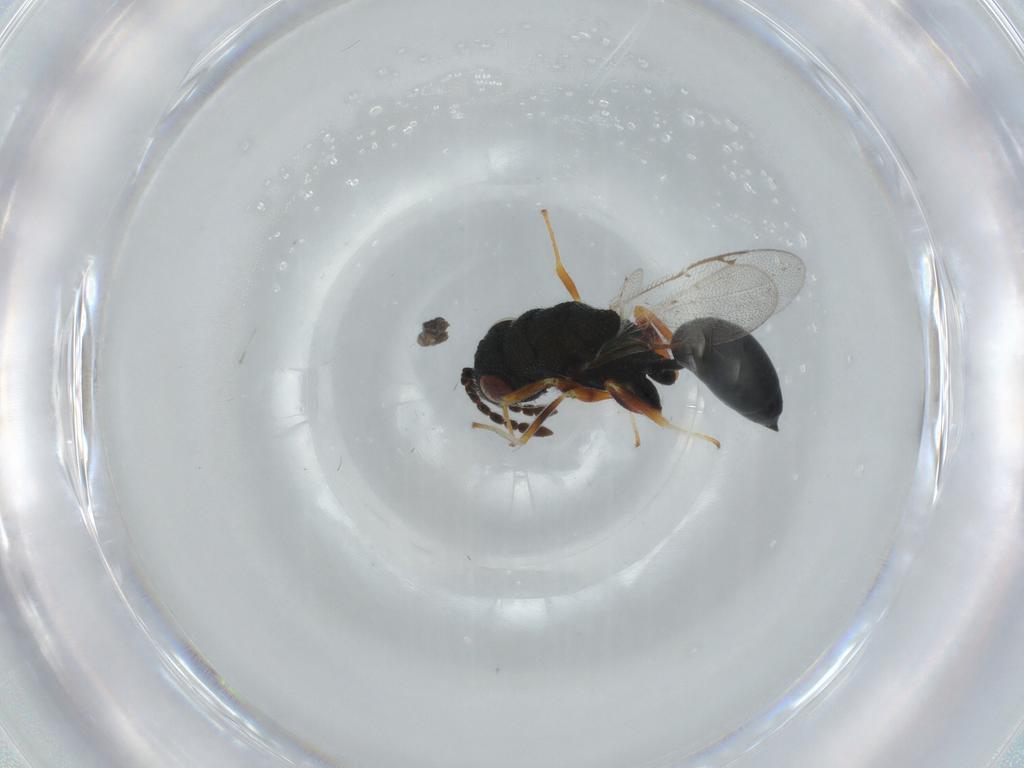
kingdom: Animalia
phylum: Arthropoda
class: Insecta
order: Hymenoptera
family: Eurytomidae
